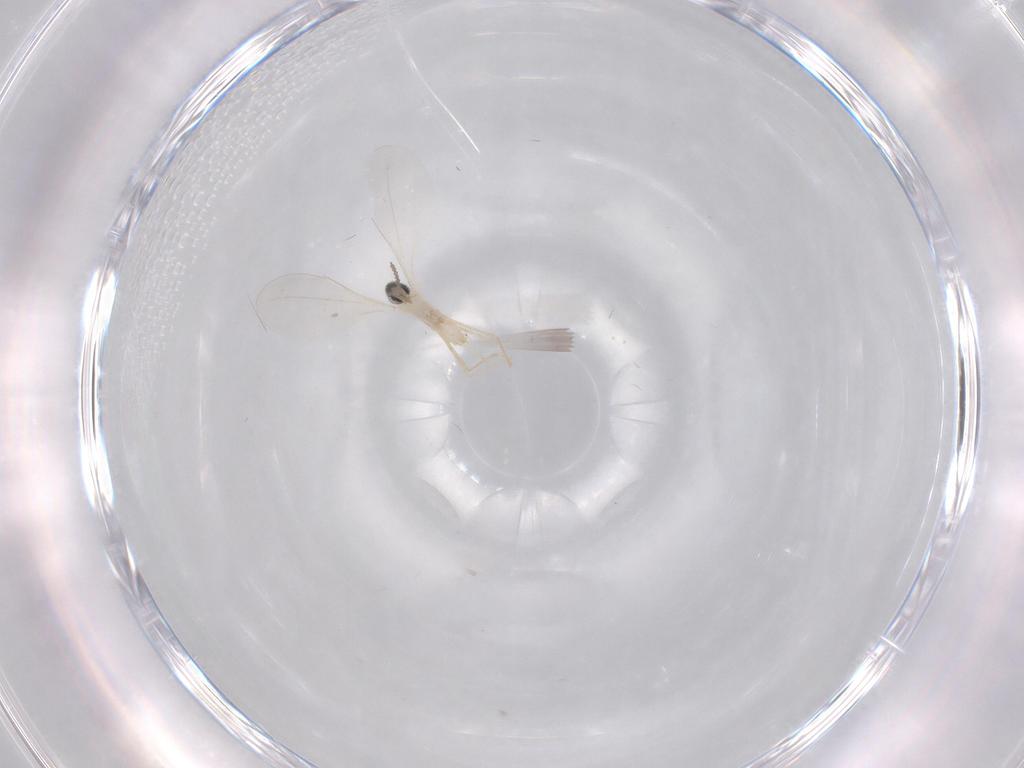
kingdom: Animalia
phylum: Arthropoda
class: Insecta
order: Diptera
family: Cecidomyiidae
